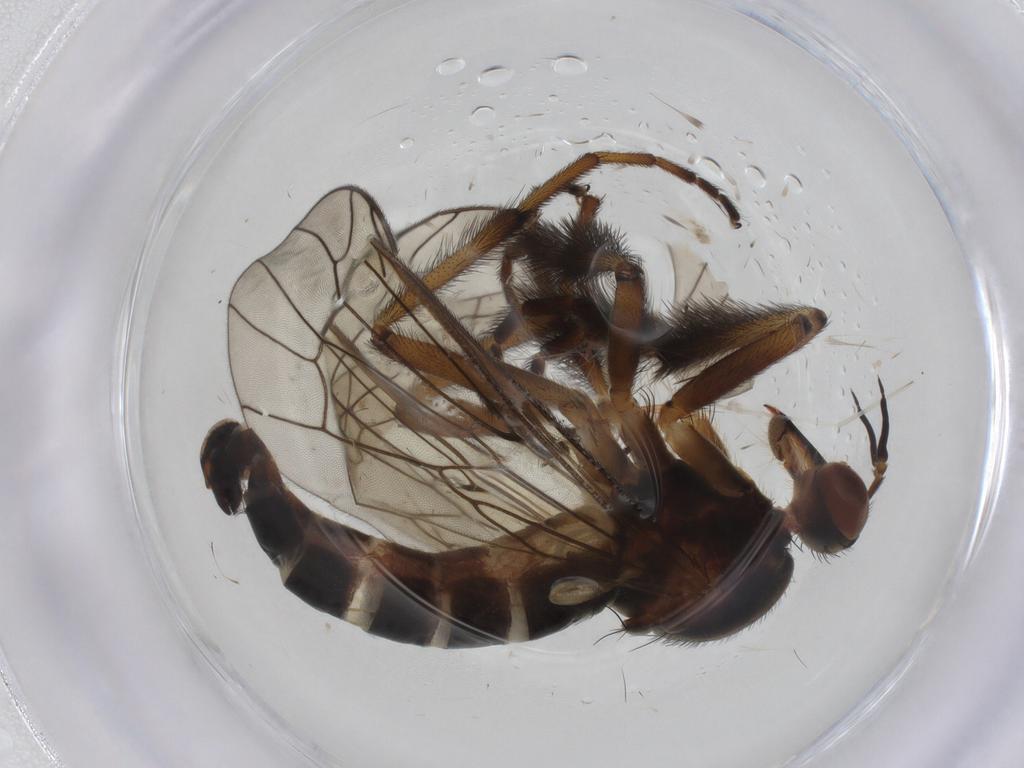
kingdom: Animalia
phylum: Arthropoda
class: Insecta
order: Diptera
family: Empididae
